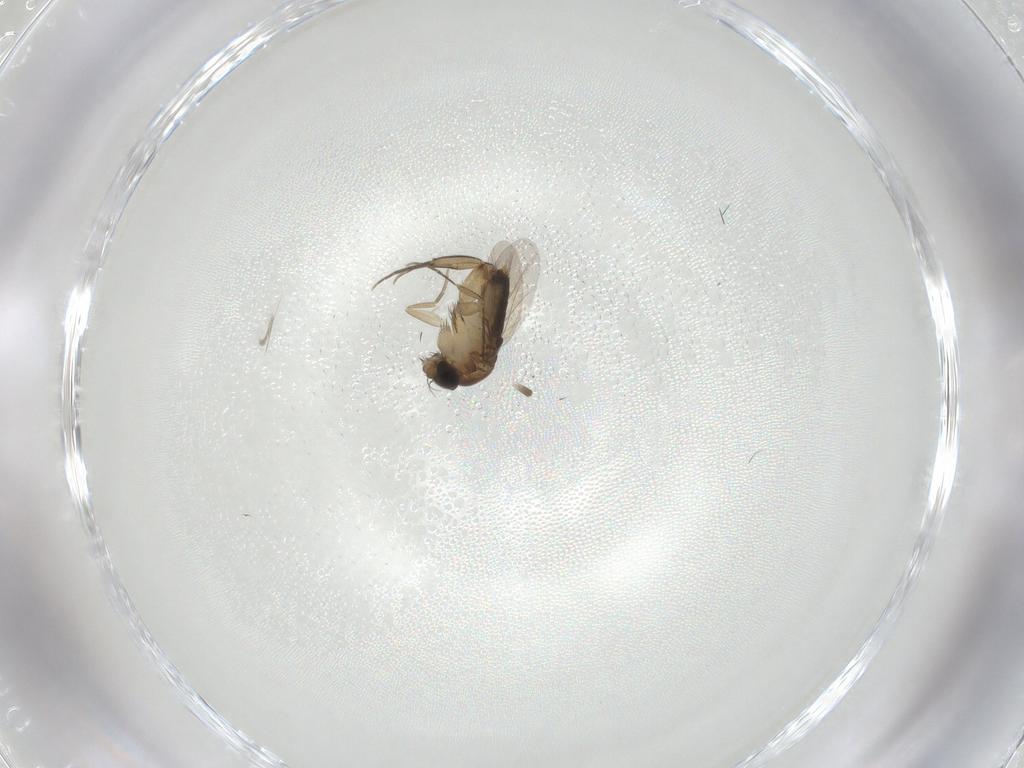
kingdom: Animalia
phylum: Arthropoda
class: Insecta
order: Diptera
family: Phoridae
